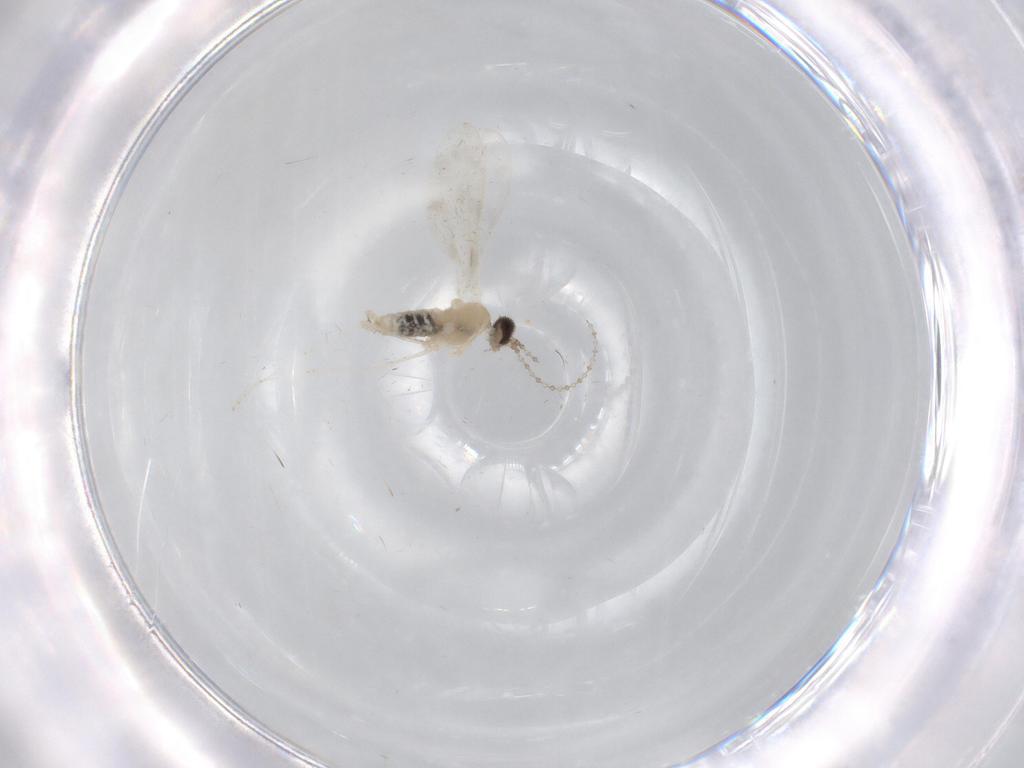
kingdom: Animalia
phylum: Arthropoda
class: Insecta
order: Diptera
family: Cecidomyiidae
